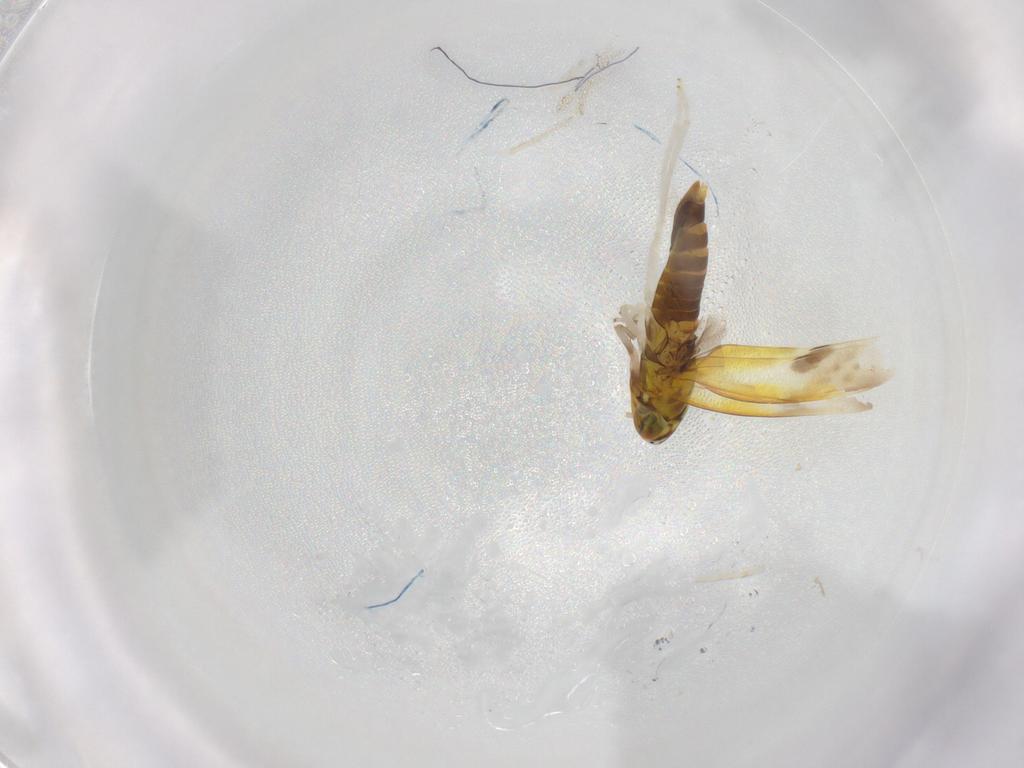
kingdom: Animalia
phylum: Arthropoda
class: Insecta
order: Hemiptera
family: Cicadellidae
